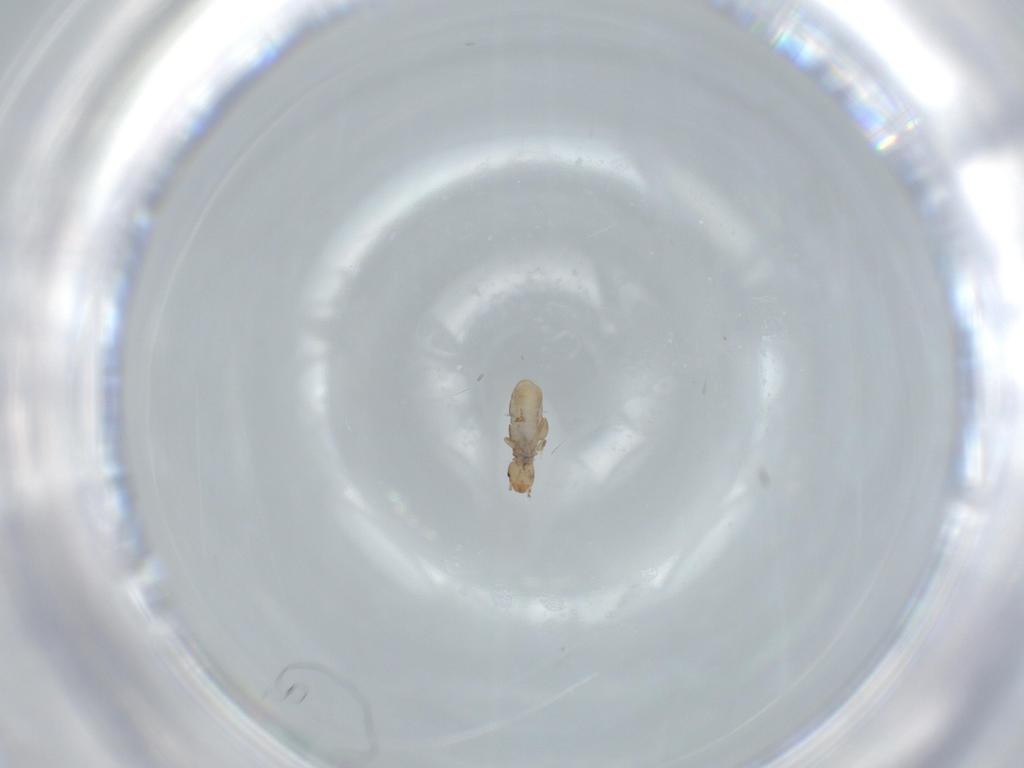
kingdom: Animalia
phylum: Arthropoda
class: Insecta
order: Psocodea
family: Liposcelididae
